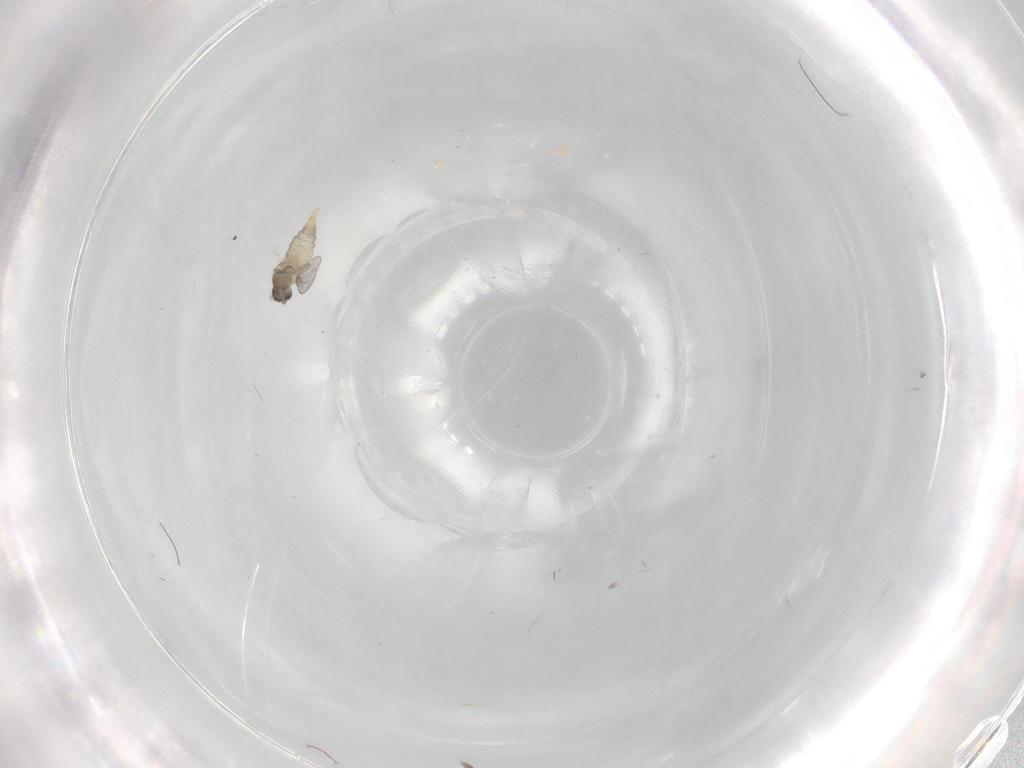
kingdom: Animalia
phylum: Arthropoda
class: Insecta
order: Diptera
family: Cecidomyiidae
